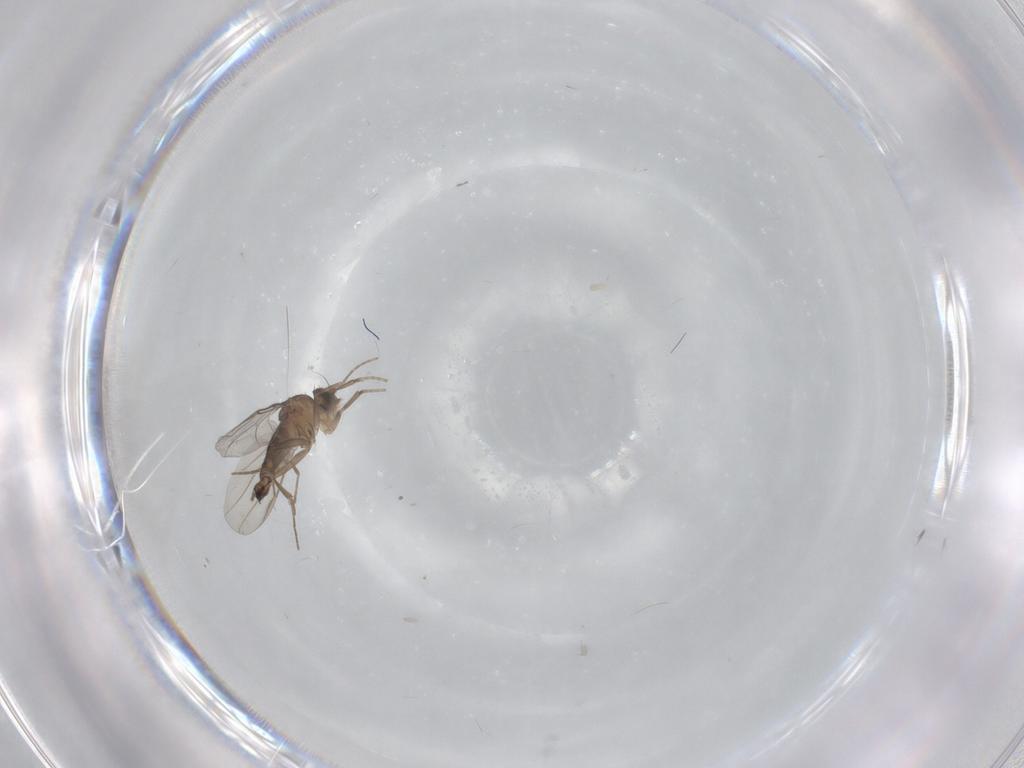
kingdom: Animalia
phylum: Arthropoda
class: Insecta
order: Diptera
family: Phoridae
